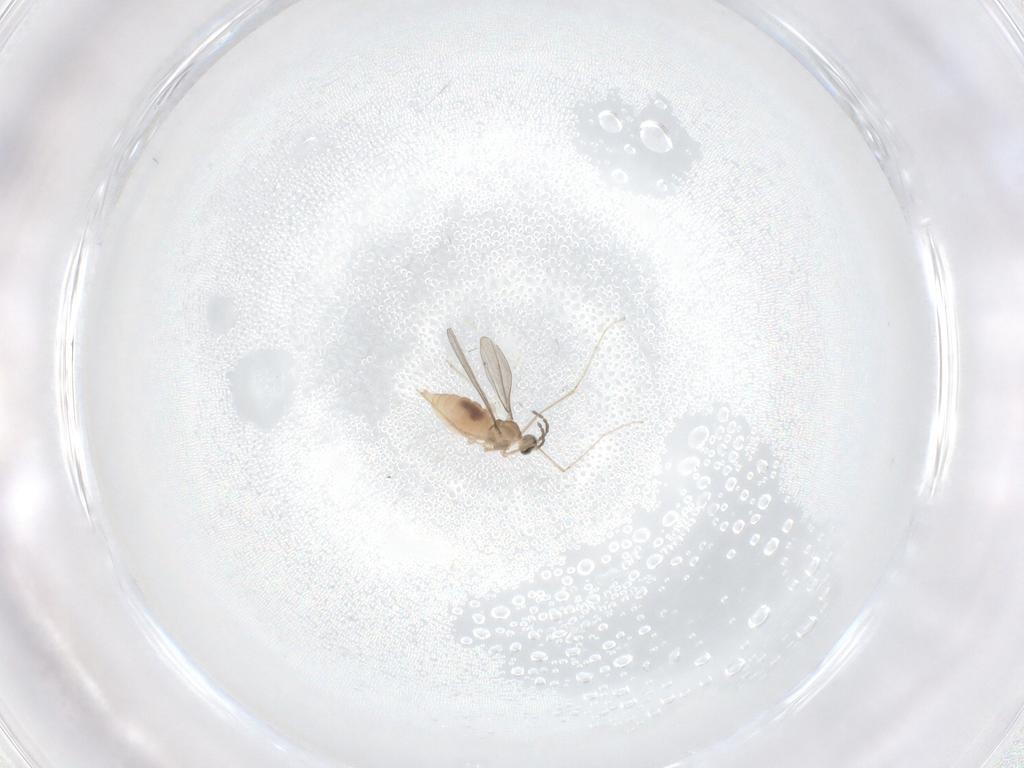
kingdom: Animalia
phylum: Arthropoda
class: Insecta
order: Diptera
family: Cecidomyiidae
